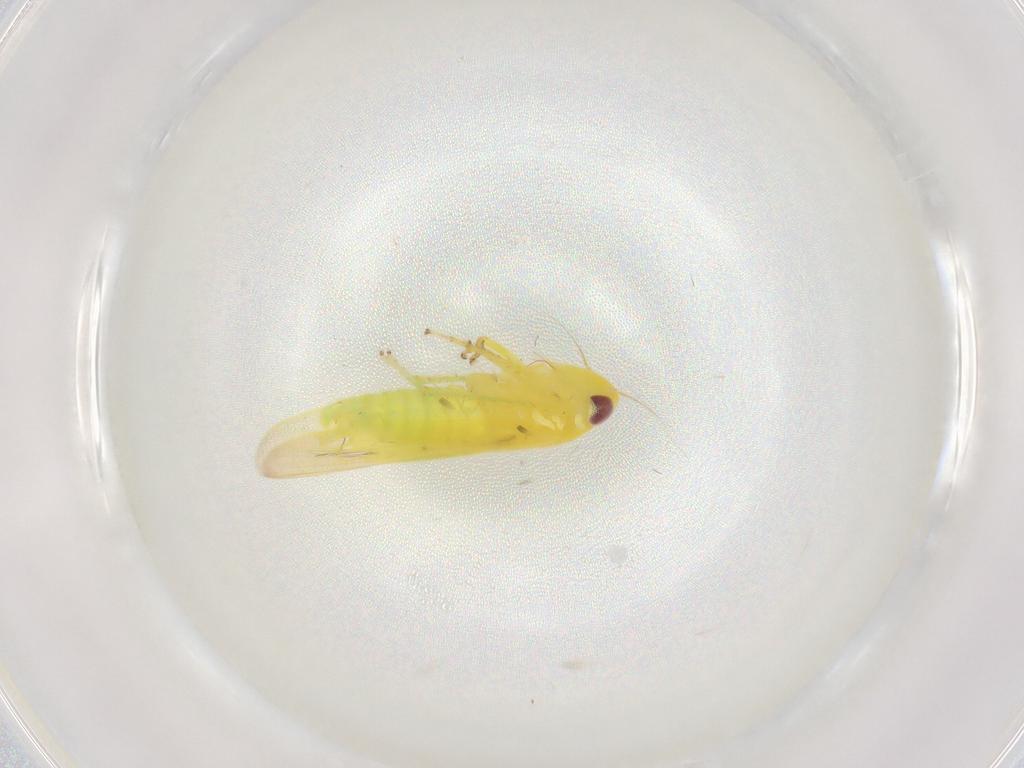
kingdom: Animalia
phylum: Arthropoda
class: Insecta
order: Hemiptera
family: Cicadellidae
